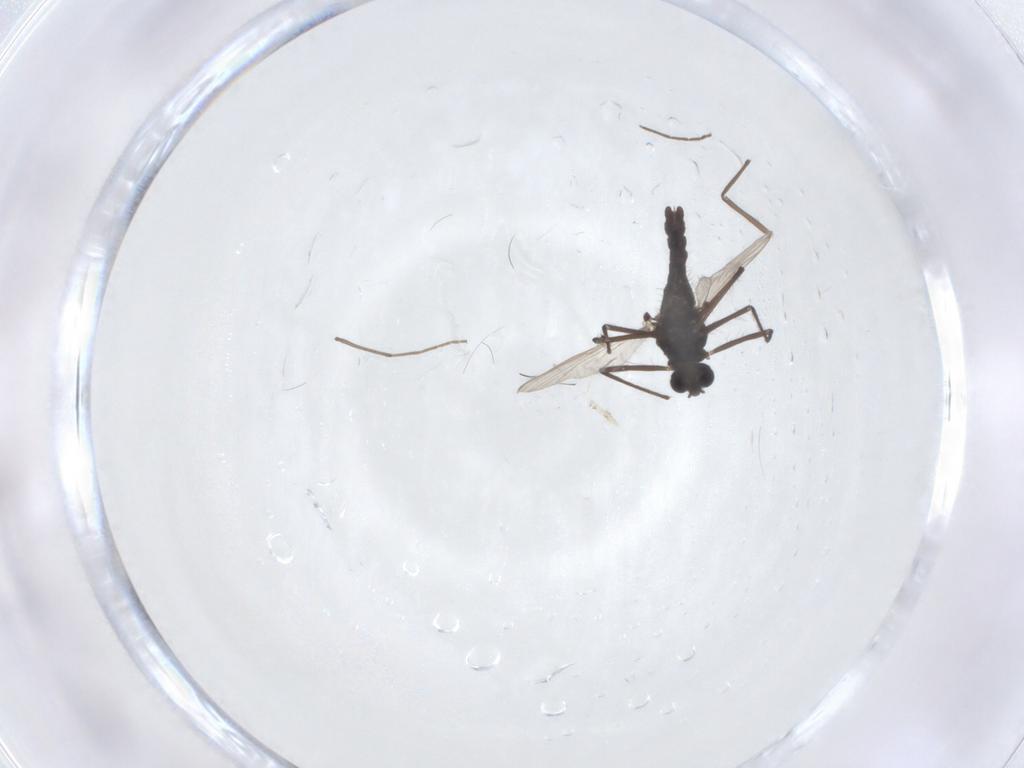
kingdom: Animalia
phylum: Arthropoda
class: Insecta
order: Diptera
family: Chironomidae
